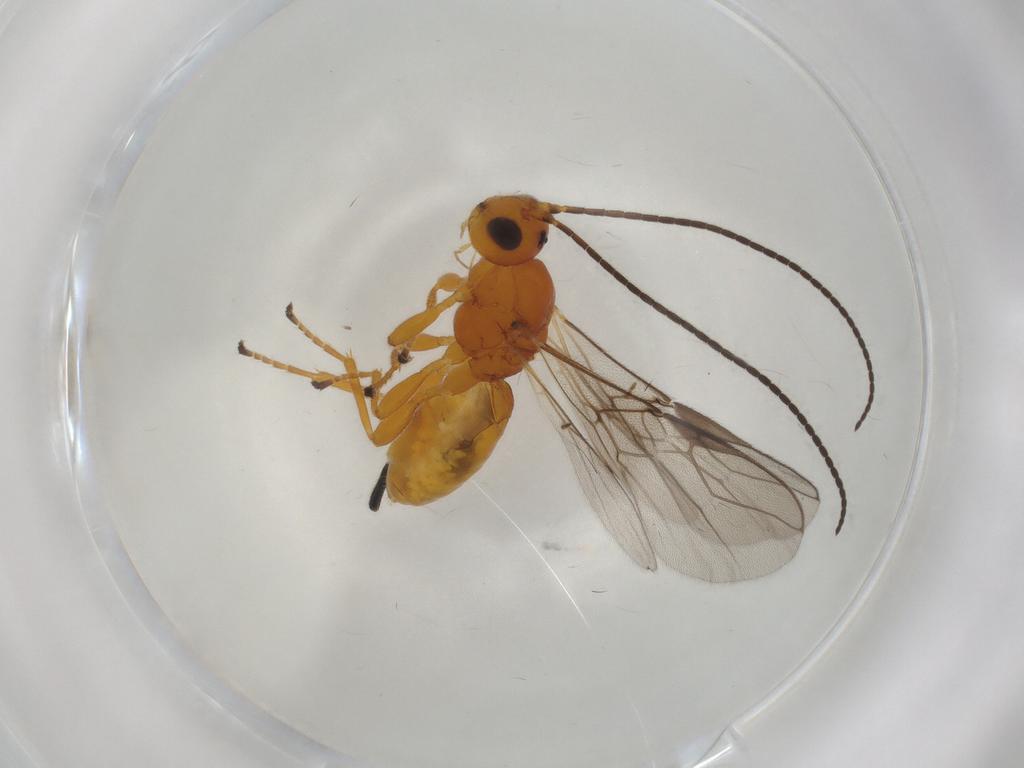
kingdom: Animalia
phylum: Arthropoda
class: Insecta
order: Hymenoptera
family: Braconidae
